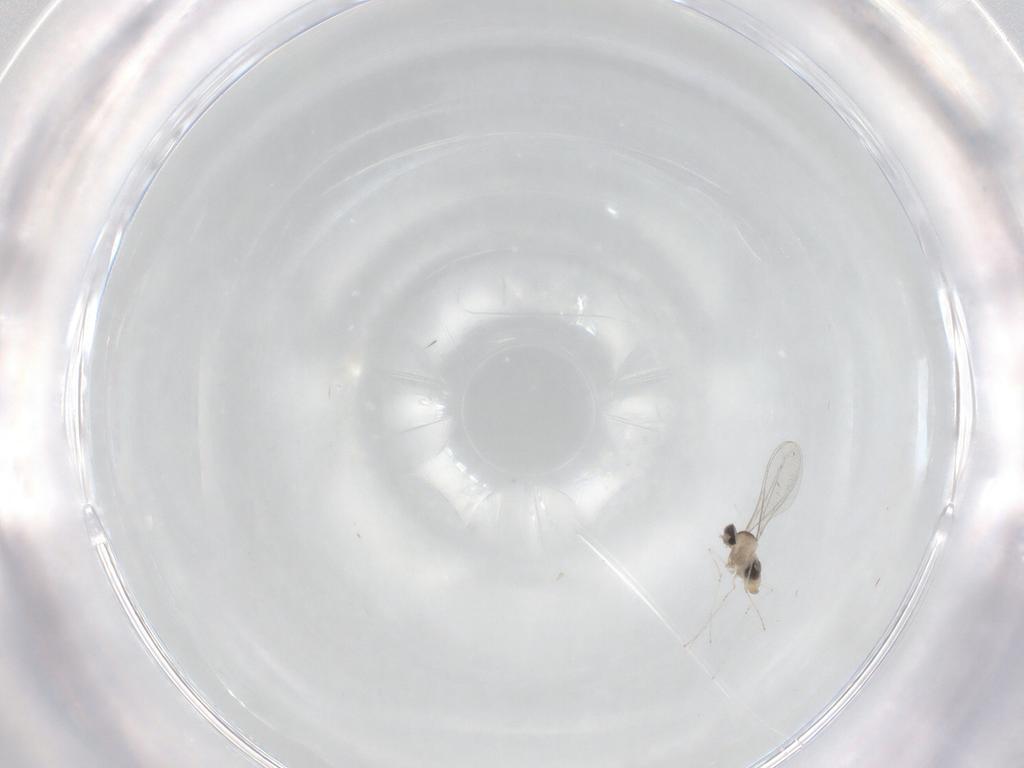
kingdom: Animalia
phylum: Arthropoda
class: Insecta
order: Diptera
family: Cecidomyiidae
